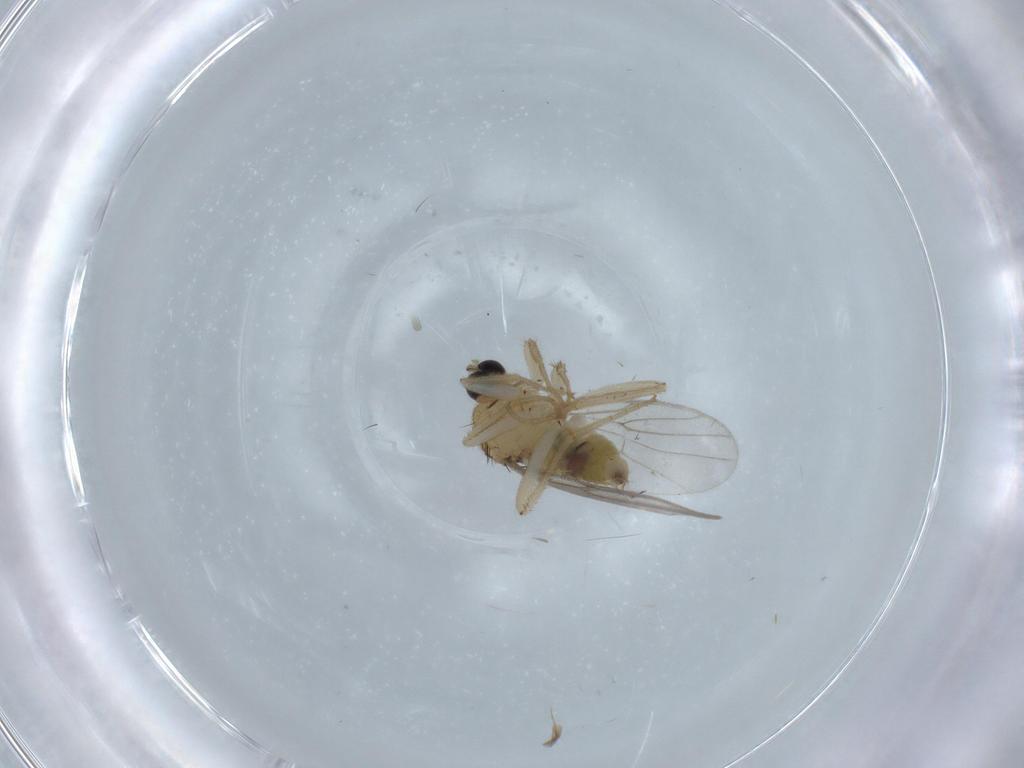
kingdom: Animalia
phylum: Arthropoda
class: Insecta
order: Diptera
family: Hybotidae
